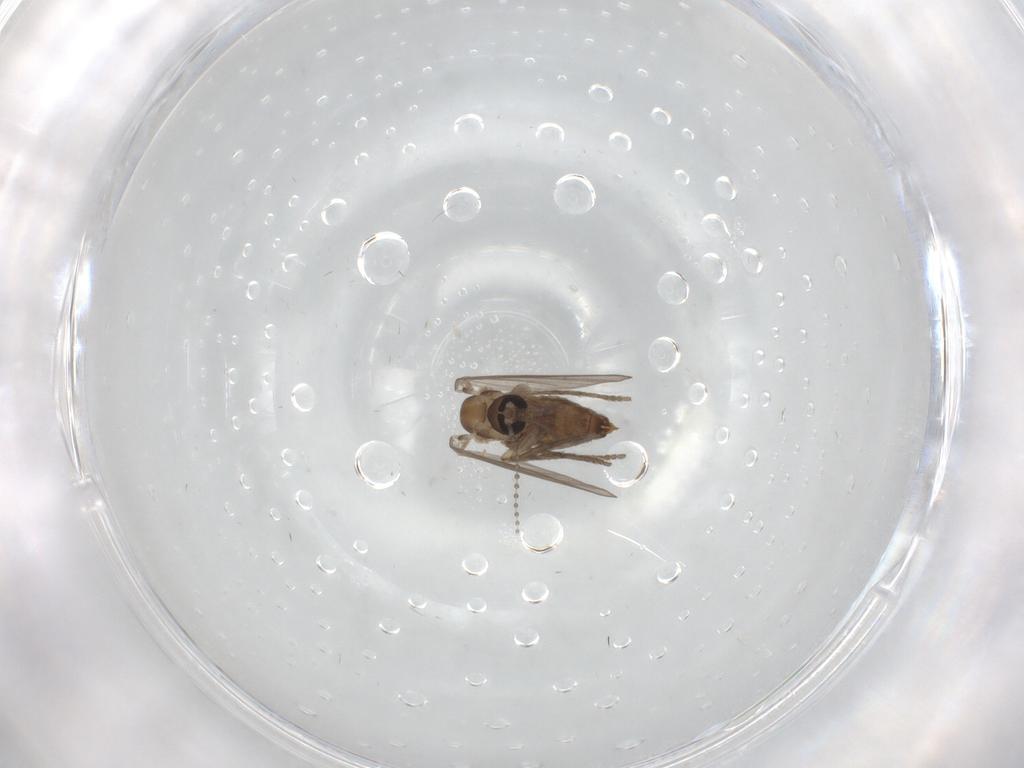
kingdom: Animalia
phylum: Arthropoda
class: Insecta
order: Diptera
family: Psychodidae
